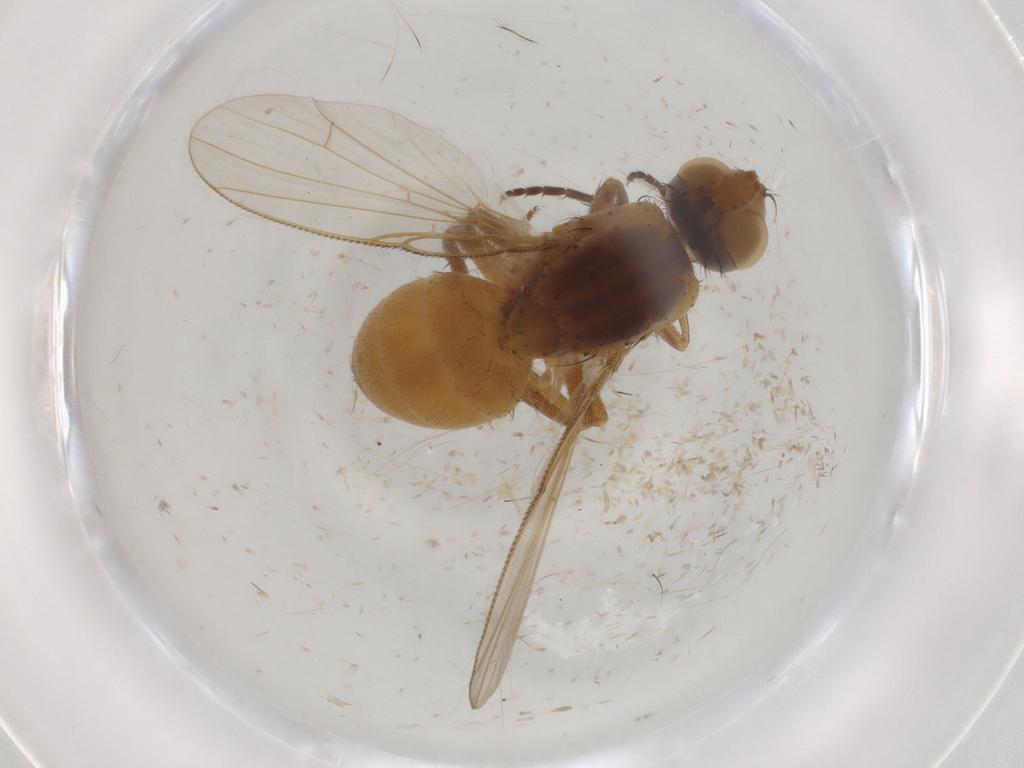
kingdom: Animalia
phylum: Arthropoda
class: Insecta
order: Diptera
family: Muscidae
